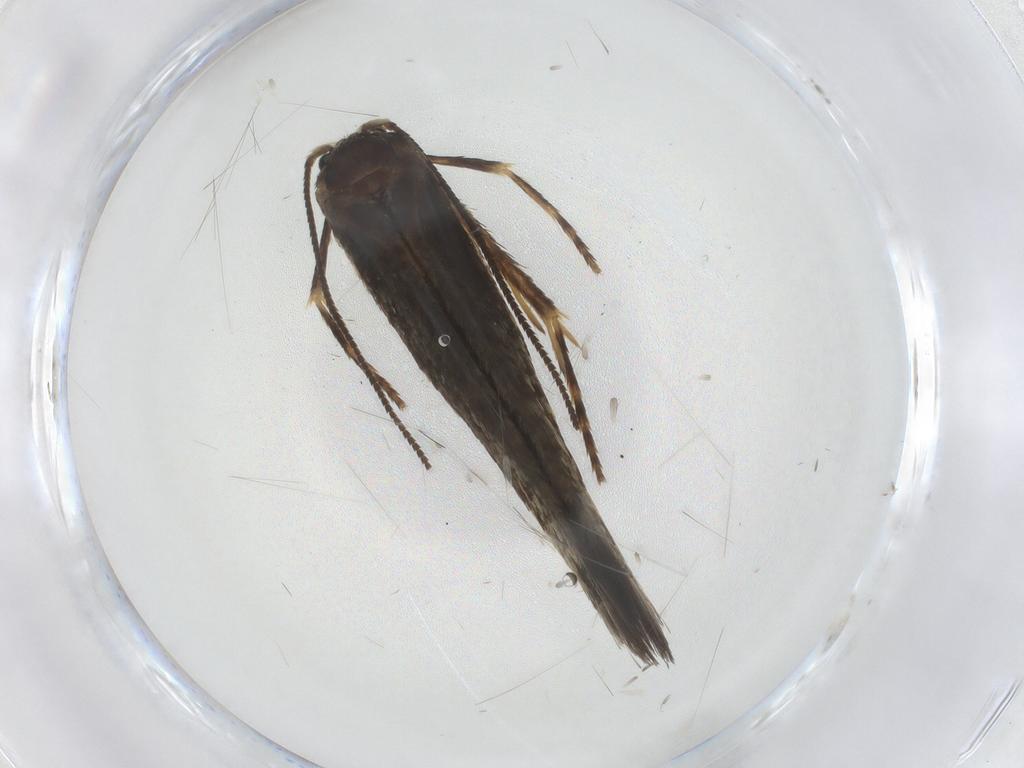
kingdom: Animalia
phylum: Arthropoda
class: Insecta
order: Lepidoptera
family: Nepticulidae
